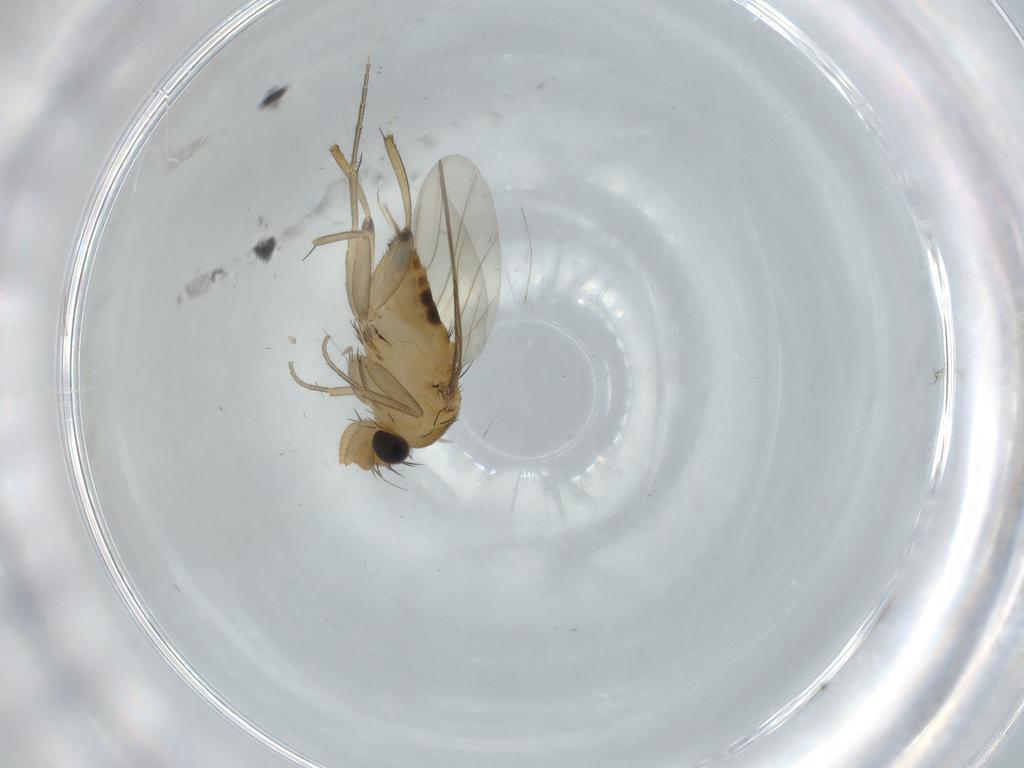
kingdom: Animalia
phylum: Arthropoda
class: Insecta
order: Diptera
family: Phoridae
